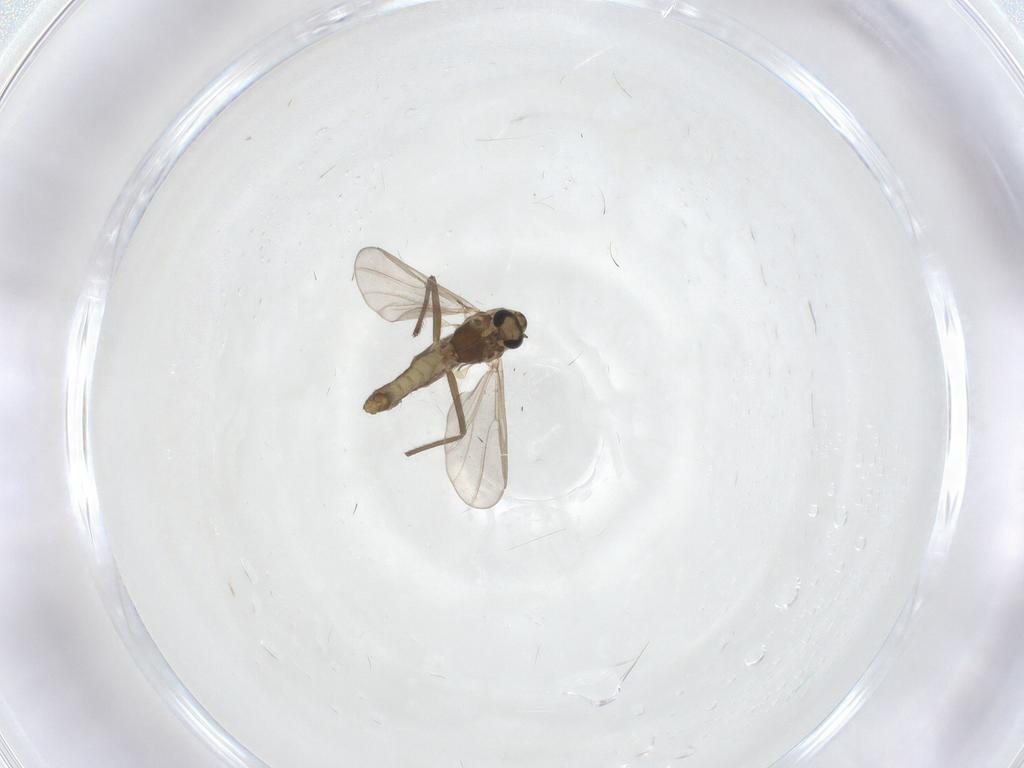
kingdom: Animalia
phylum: Arthropoda
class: Insecta
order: Diptera
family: Chironomidae
